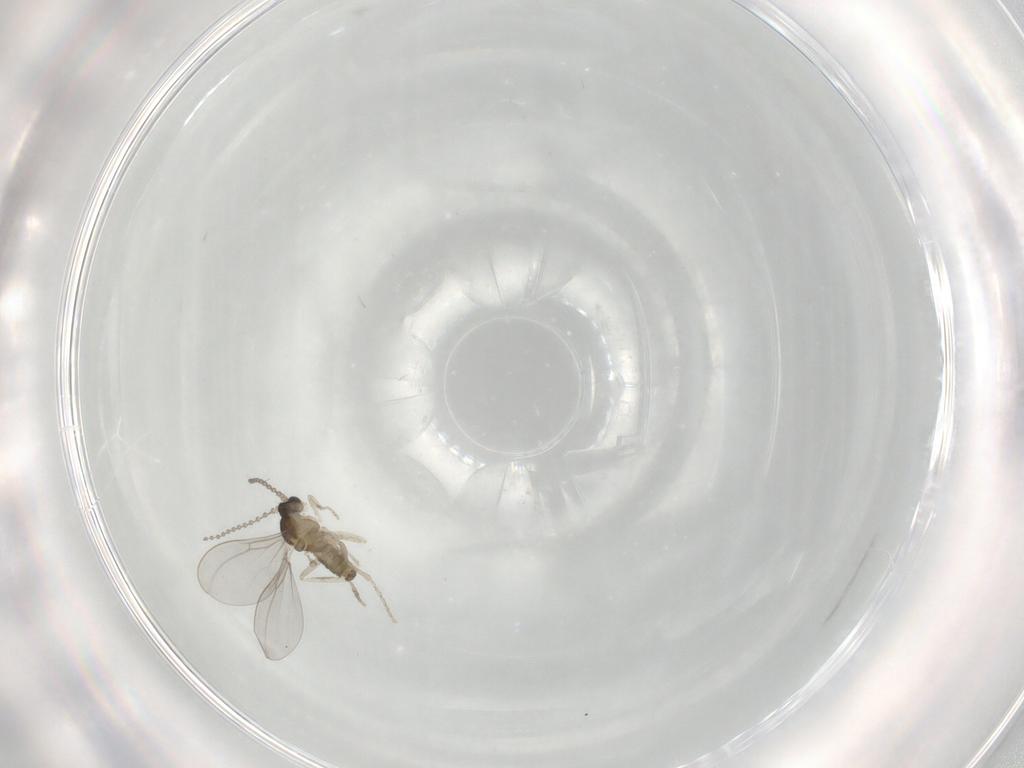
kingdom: Animalia
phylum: Arthropoda
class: Insecta
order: Diptera
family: Cecidomyiidae
